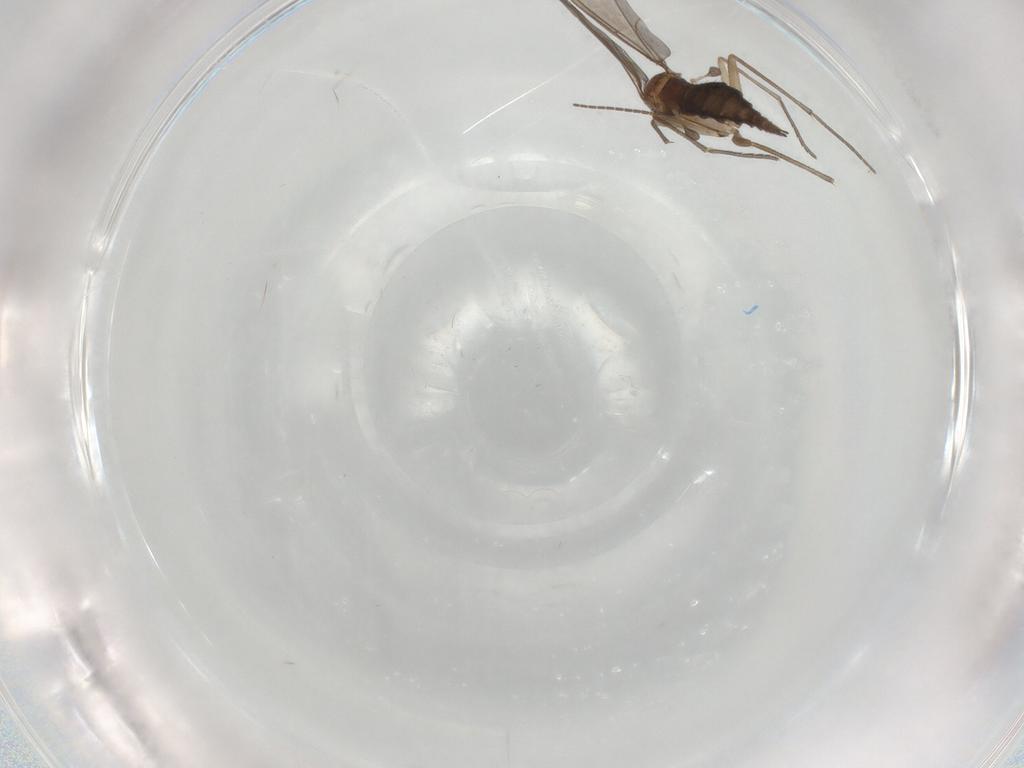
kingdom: Animalia
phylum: Arthropoda
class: Insecta
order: Diptera
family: Sciaridae
